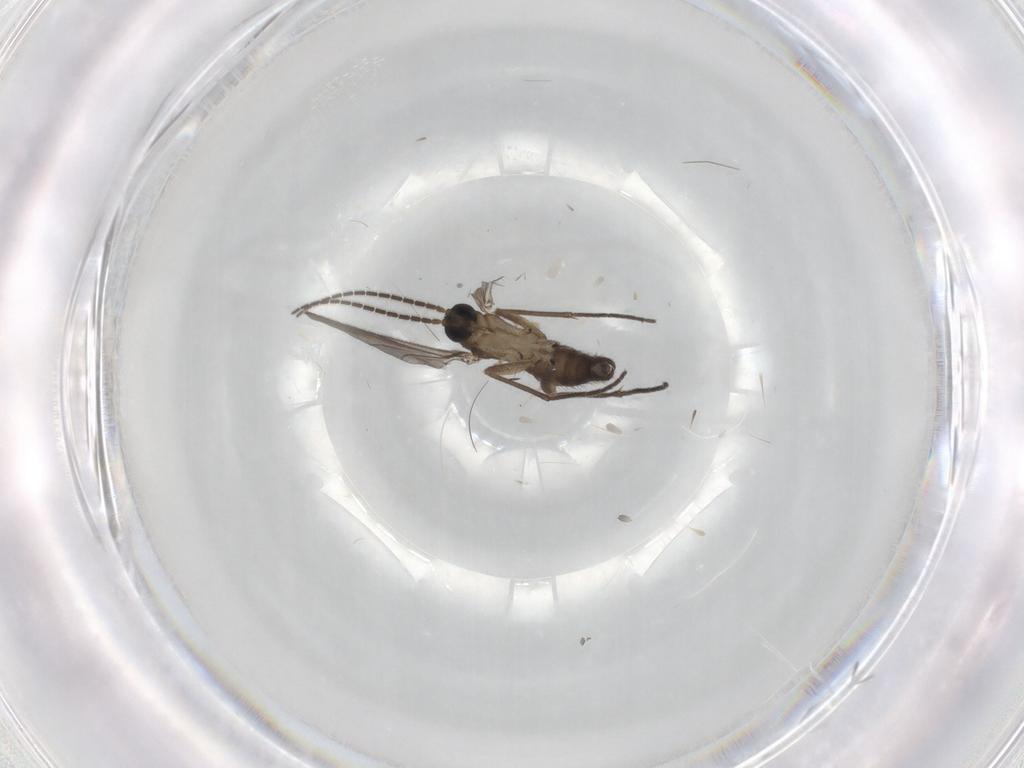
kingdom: Animalia
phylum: Arthropoda
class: Insecta
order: Diptera
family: Sciaridae
